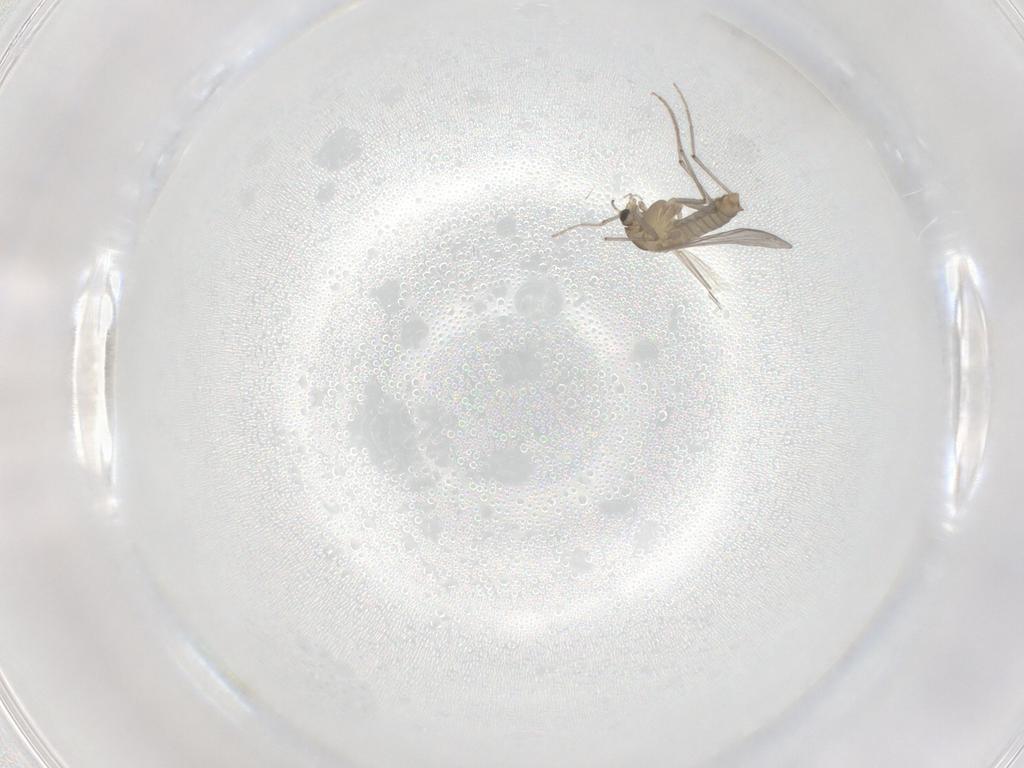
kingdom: Animalia
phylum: Arthropoda
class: Insecta
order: Diptera
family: Chironomidae
